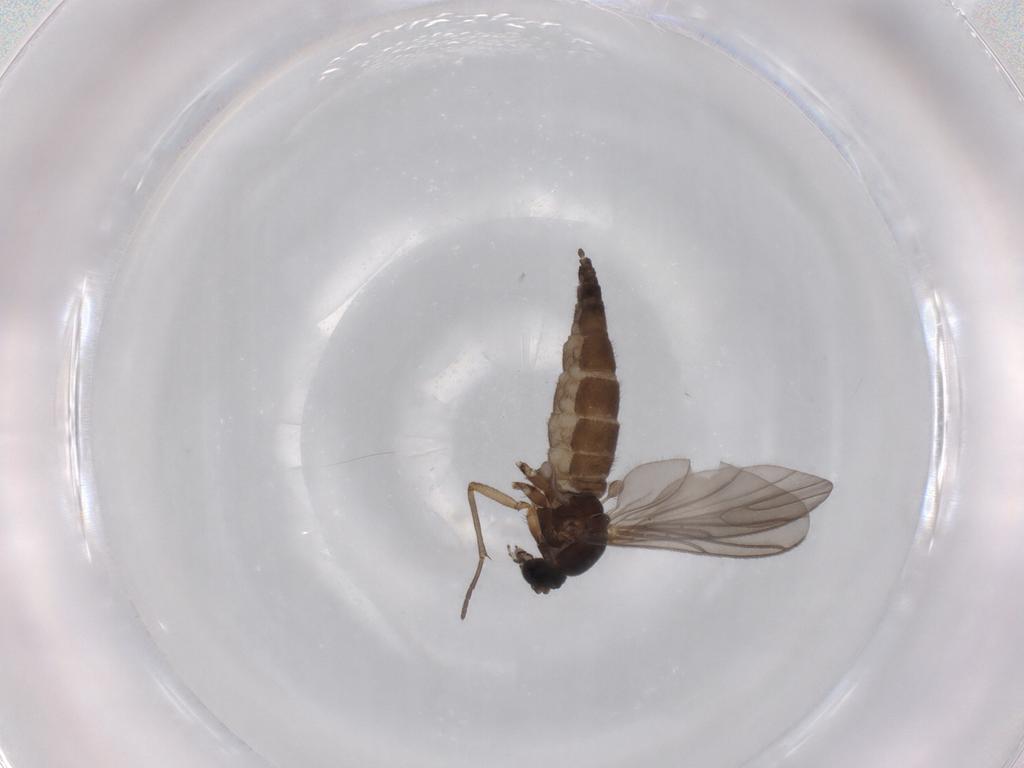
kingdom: Animalia
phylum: Arthropoda
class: Insecta
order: Diptera
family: Sciaridae
